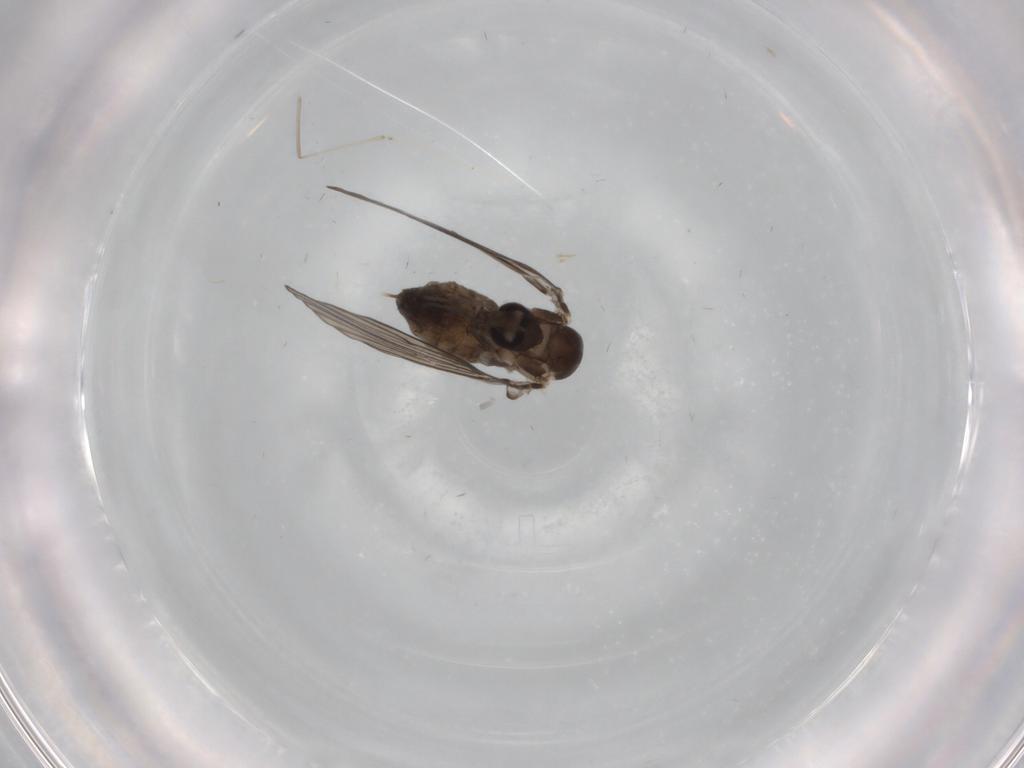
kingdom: Animalia
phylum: Arthropoda
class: Insecta
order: Diptera
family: Psychodidae
